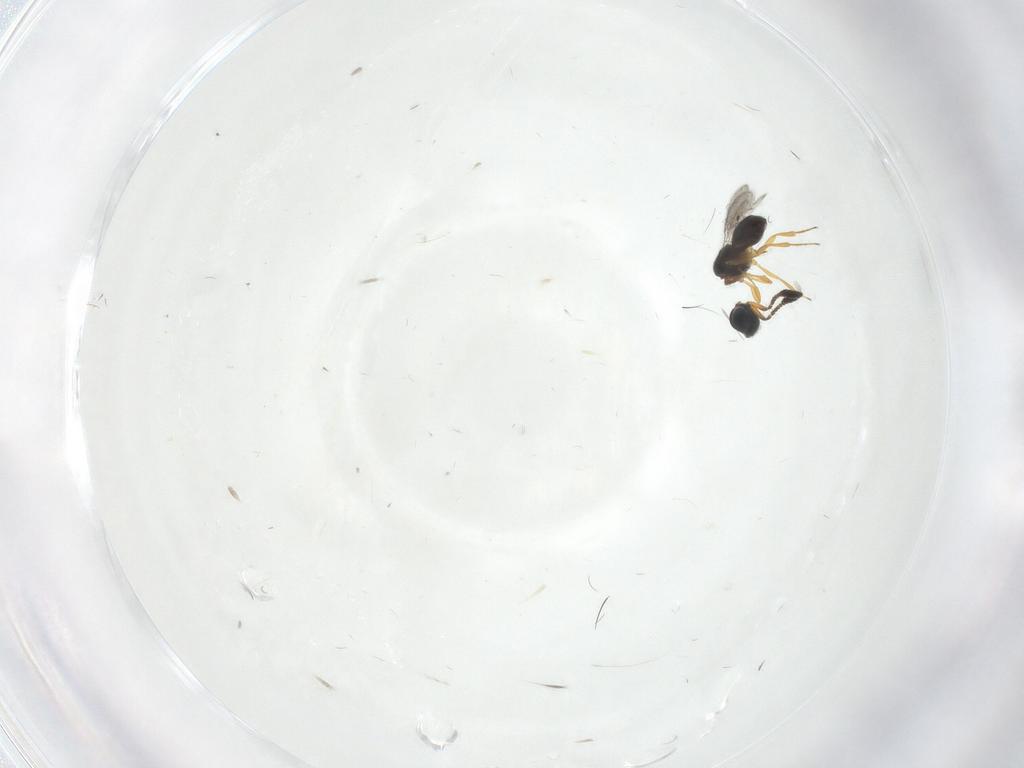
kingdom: Animalia
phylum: Arthropoda
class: Insecta
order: Hymenoptera
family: Scelionidae
